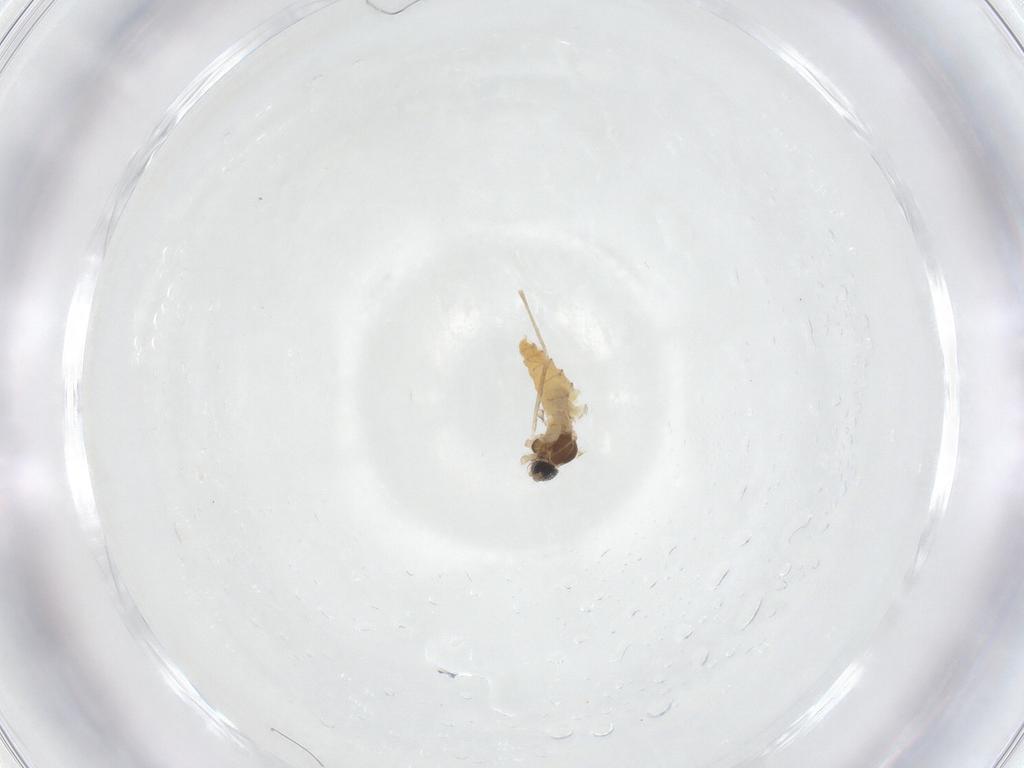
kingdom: Animalia
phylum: Arthropoda
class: Insecta
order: Diptera
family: Cecidomyiidae
